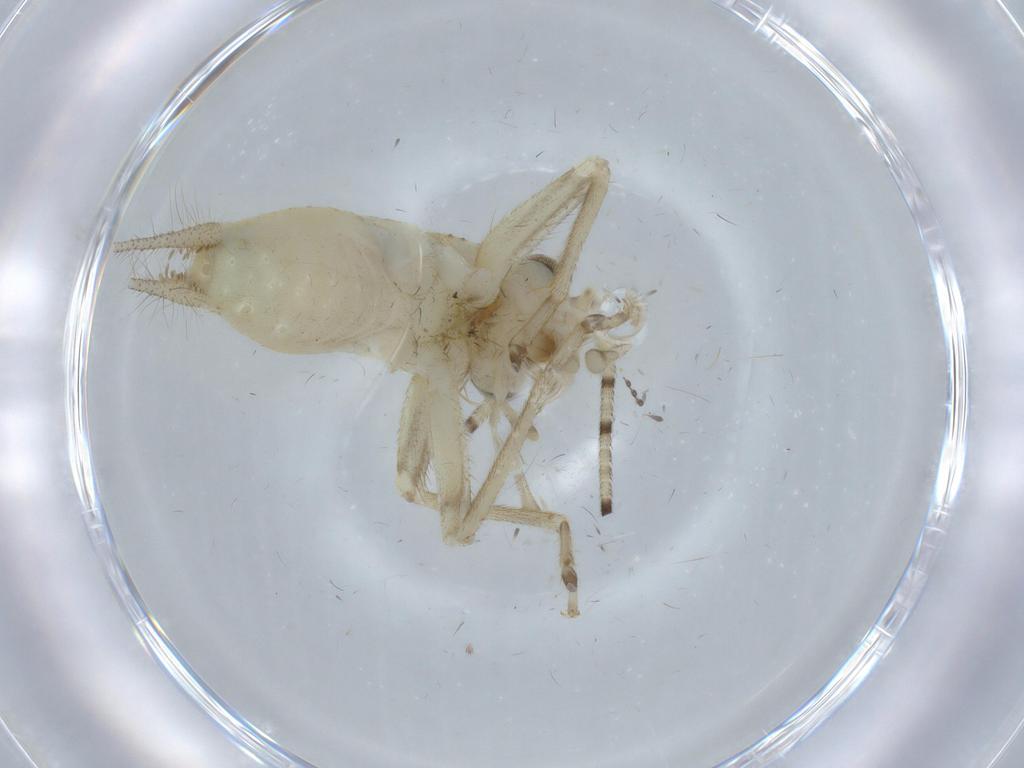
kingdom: Animalia
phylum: Arthropoda
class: Insecta
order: Orthoptera
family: Trigonidiidae
